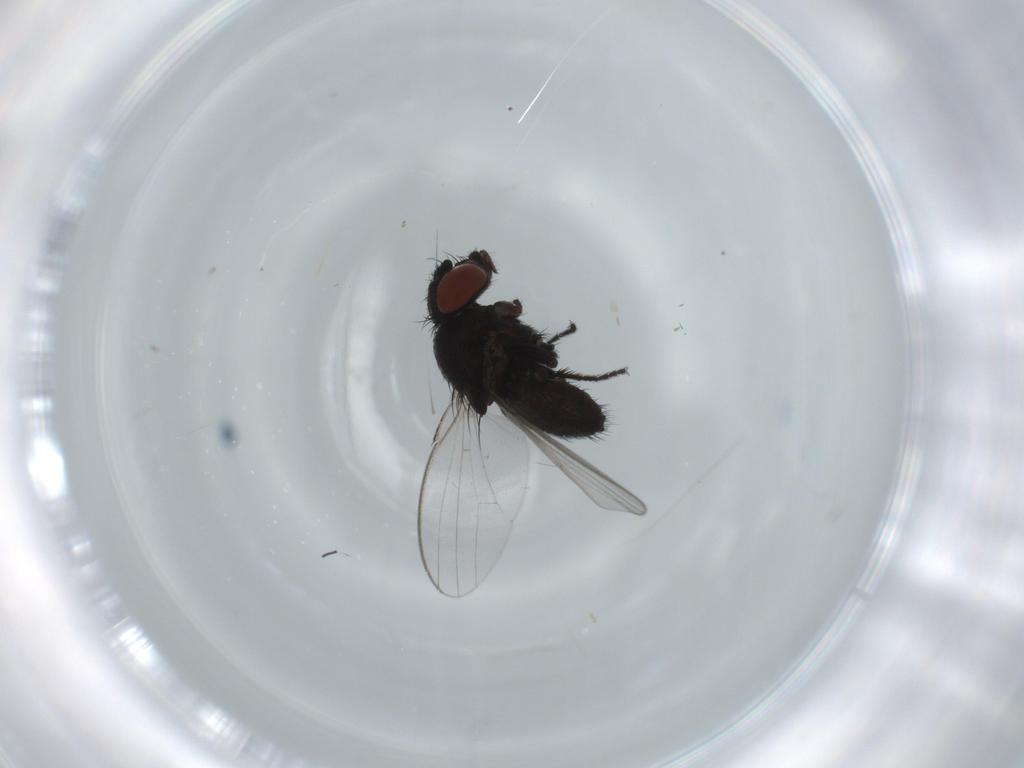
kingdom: Animalia
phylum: Arthropoda
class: Insecta
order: Diptera
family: Milichiidae
